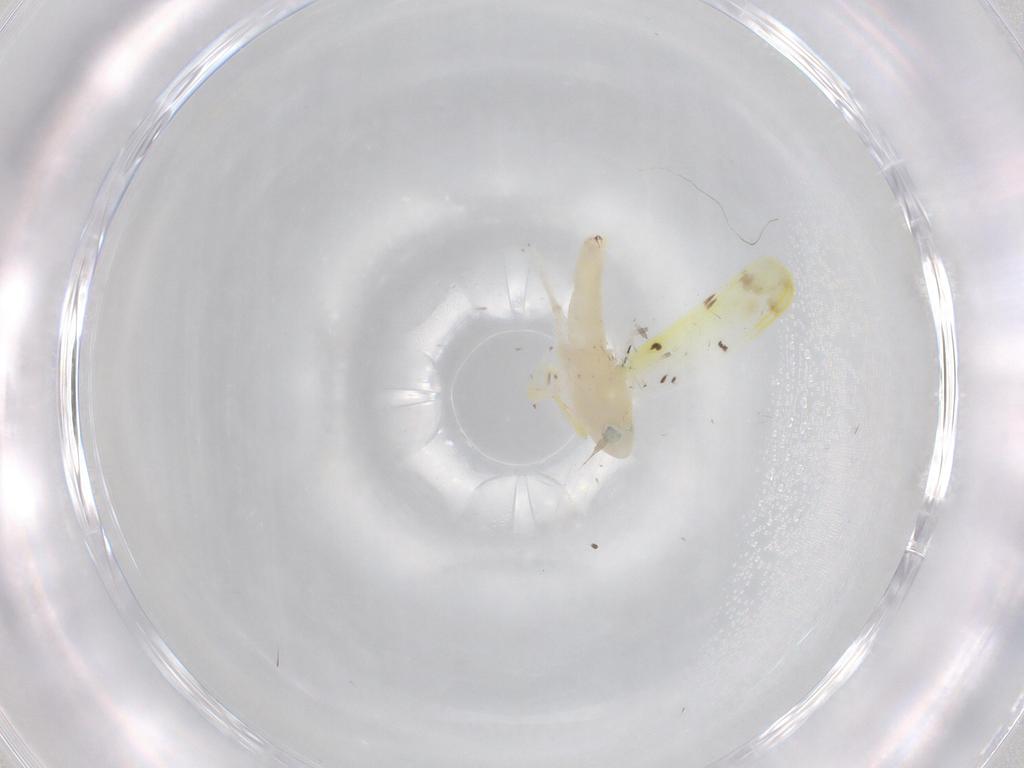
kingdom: Animalia
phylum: Arthropoda
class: Insecta
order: Hemiptera
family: Cicadellidae
